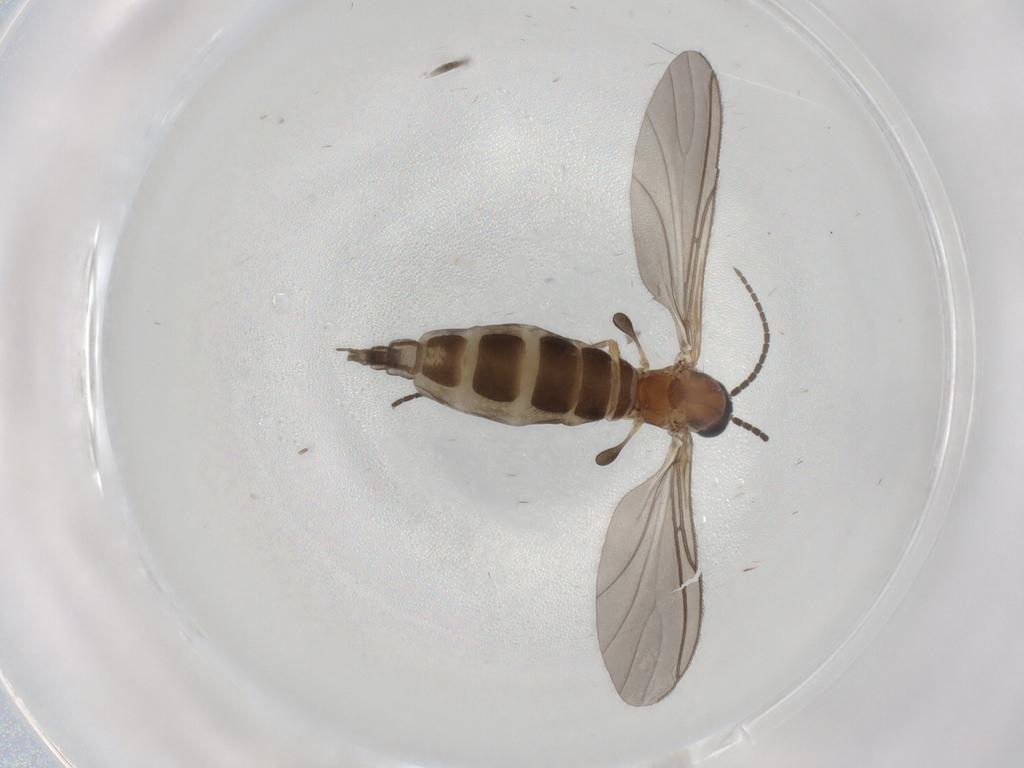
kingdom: Animalia
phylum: Arthropoda
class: Insecta
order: Diptera
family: Sciaridae
